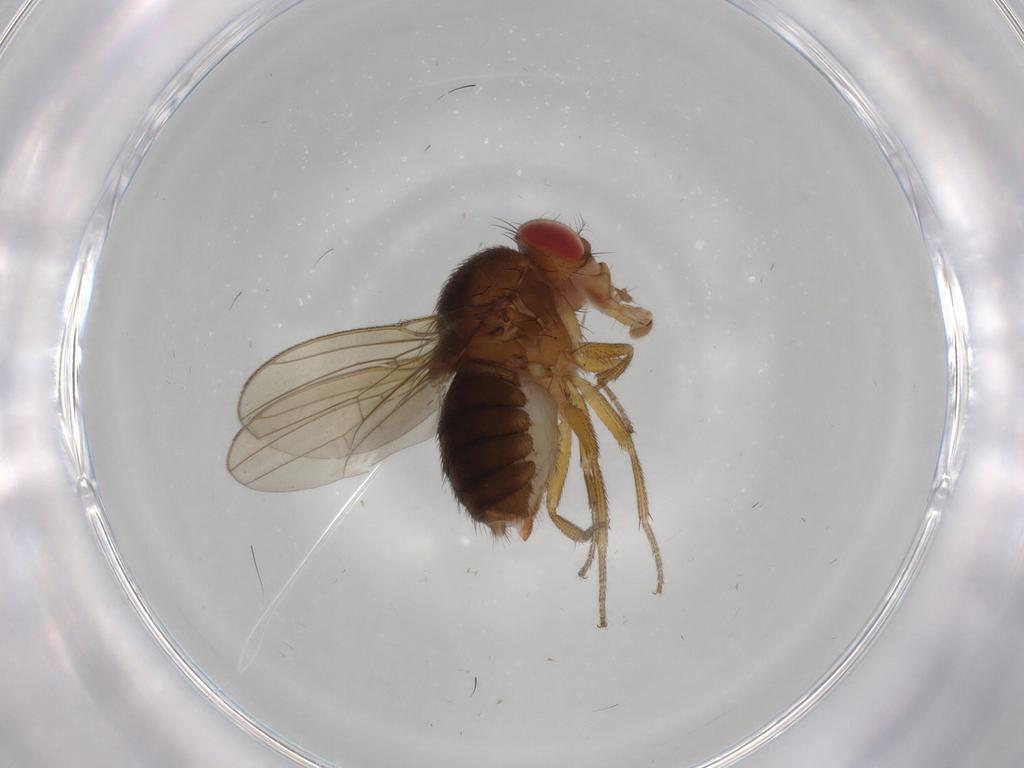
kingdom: Animalia
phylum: Arthropoda
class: Insecta
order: Diptera
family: Drosophilidae
